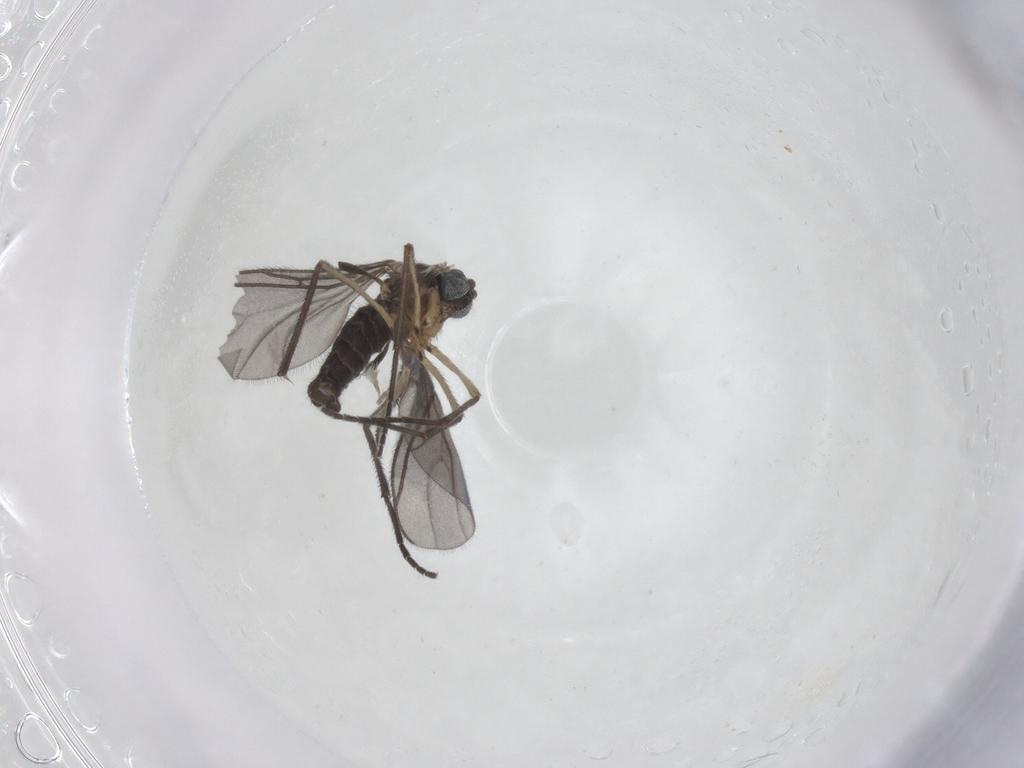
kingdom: Animalia
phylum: Arthropoda
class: Insecta
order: Diptera
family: Sciaridae
